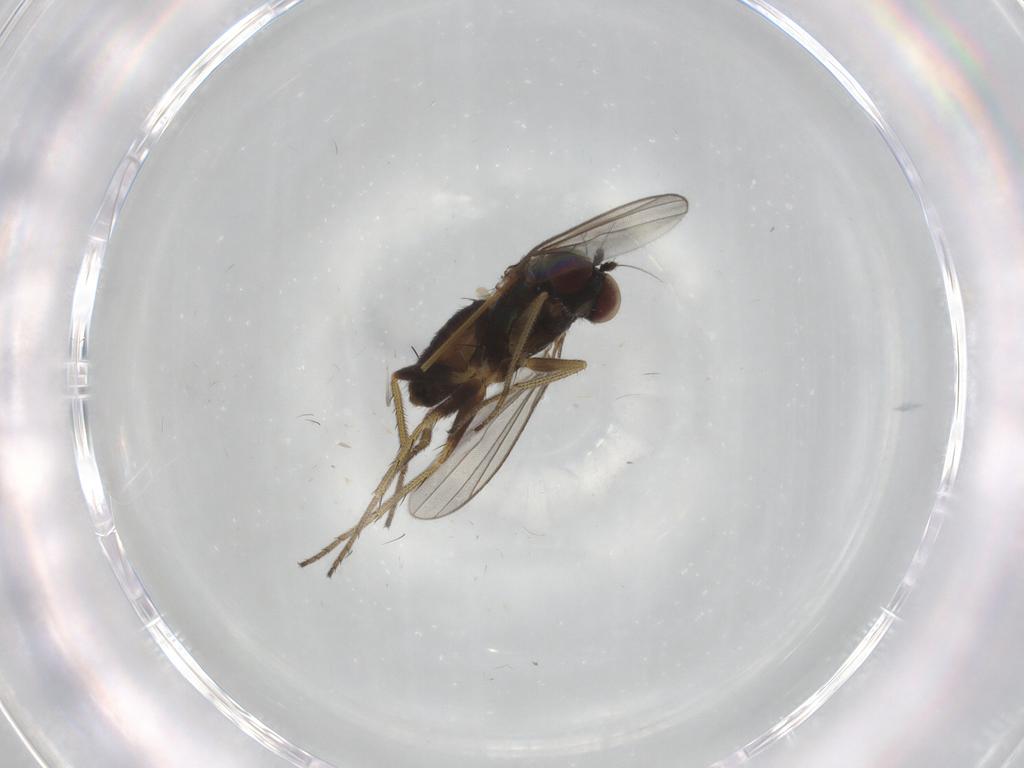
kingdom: Animalia
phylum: Arthropoda
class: Insecta
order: Diptera
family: Dolichopodidae
